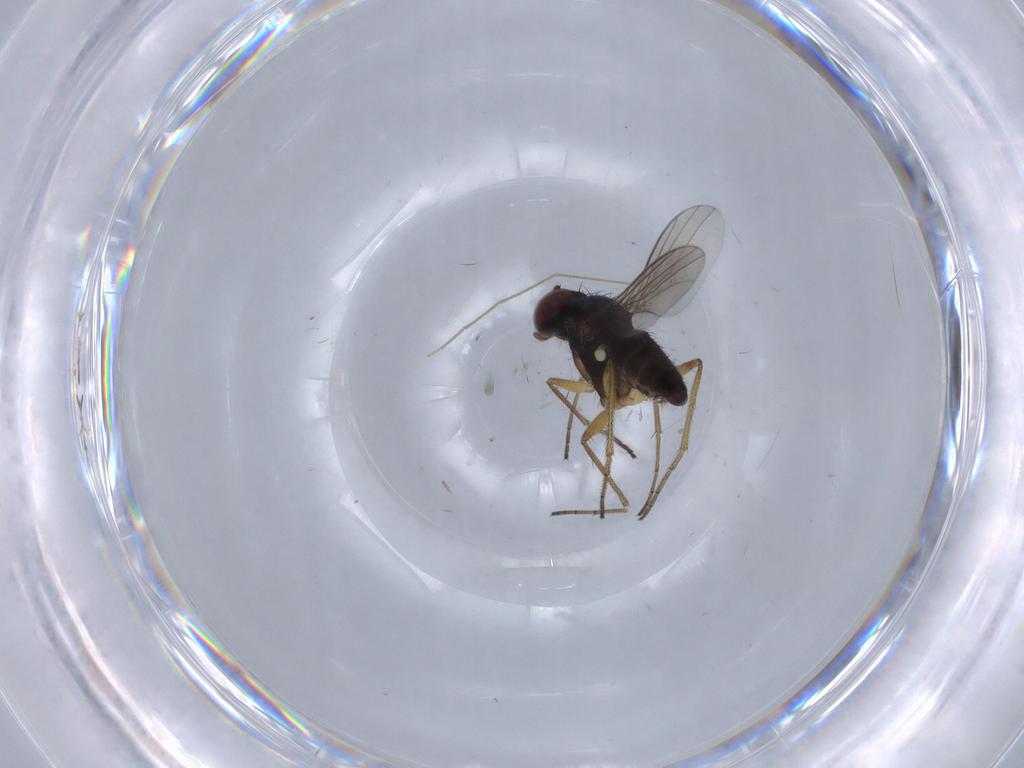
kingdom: Animalia
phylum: Arthropoda
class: Insecta
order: Diptera
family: Dolichopodidae
